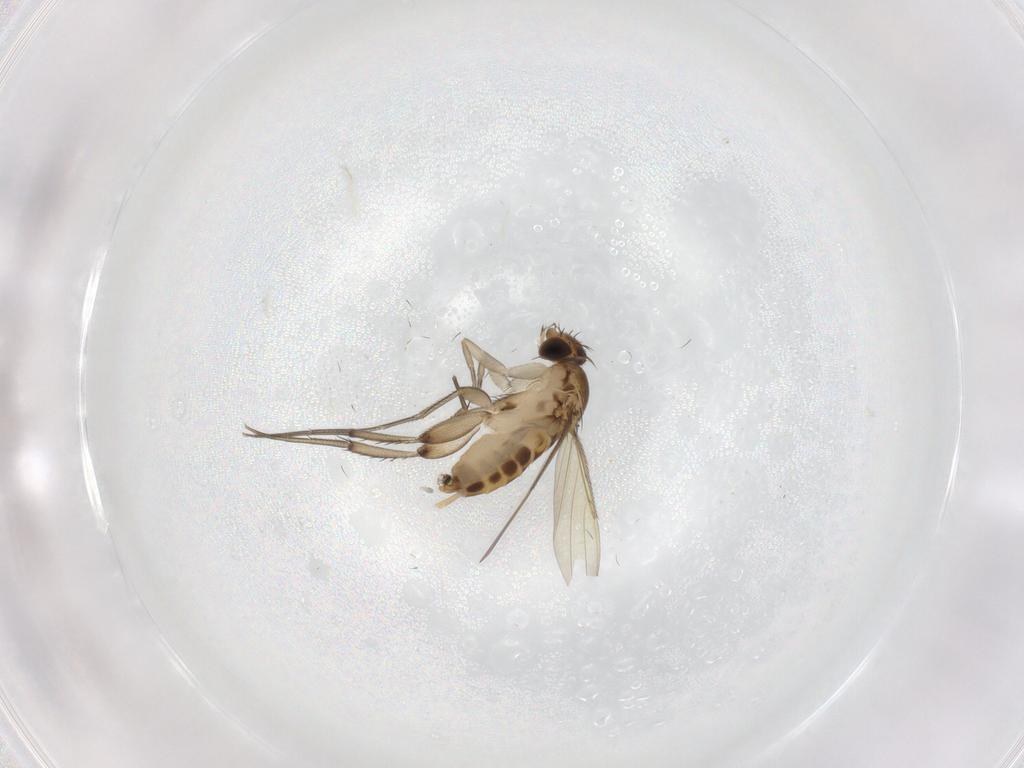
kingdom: Animalia
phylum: Arthropoda
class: Insecta
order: Diptera
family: Phoridae
